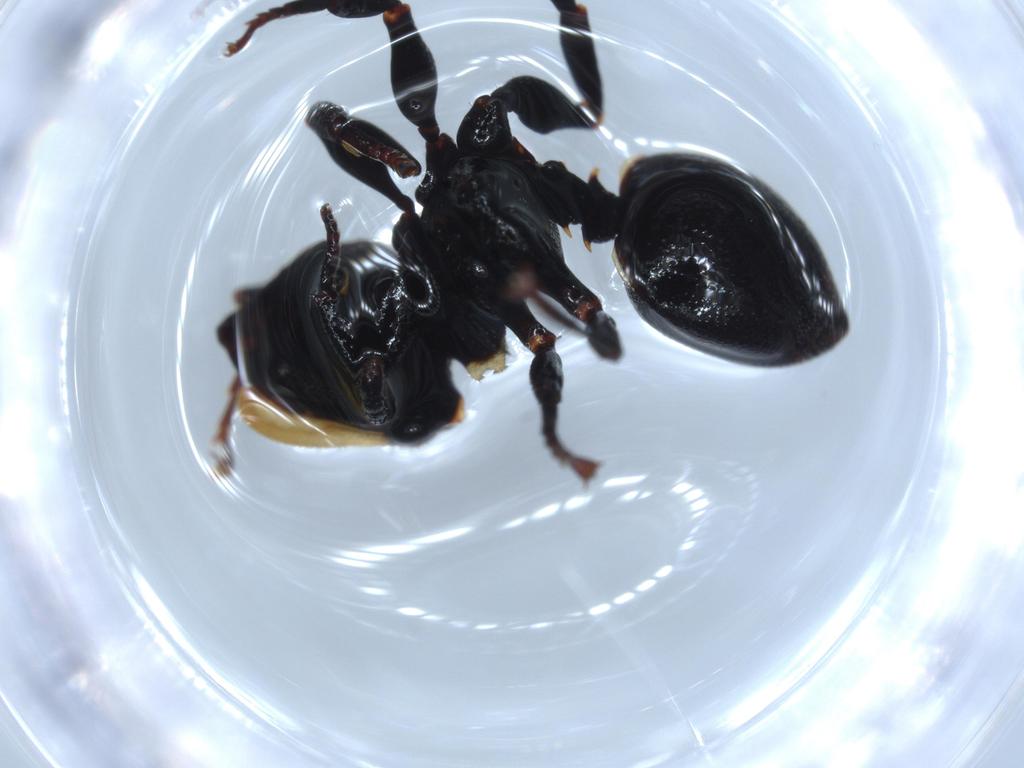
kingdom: Animalia
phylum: Arthropoda
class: Insecta
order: Hymenoptera
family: Formicidae
